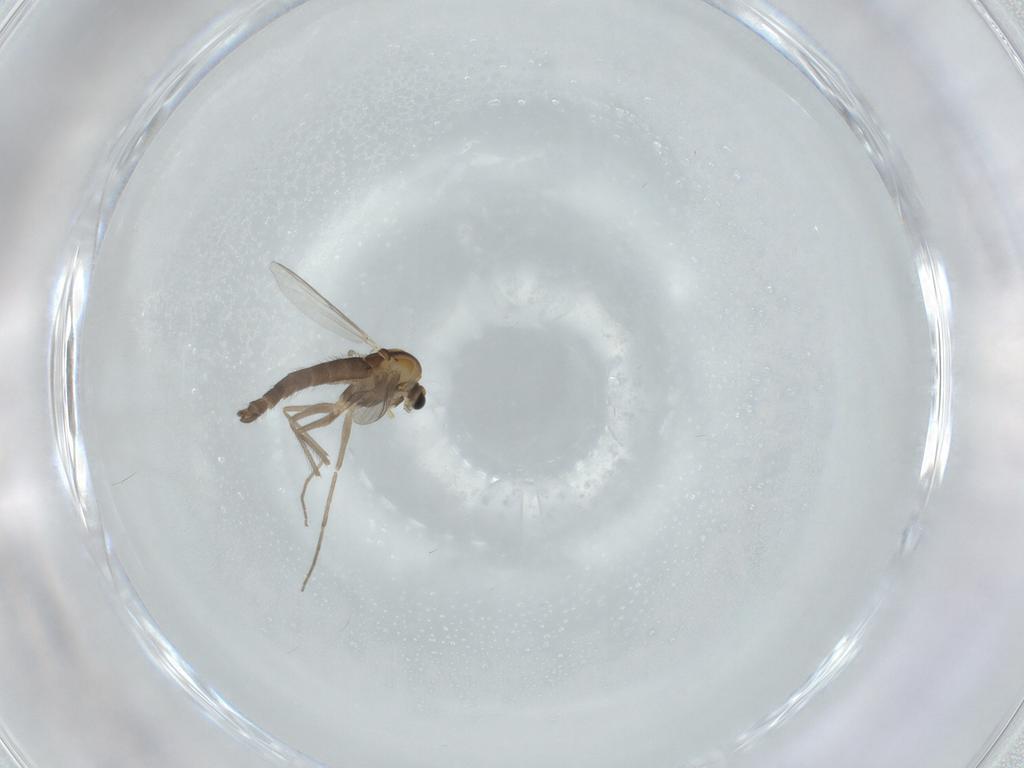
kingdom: Animalia
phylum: Arthropoda
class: Insecta
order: Diptera
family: Chironomidae
